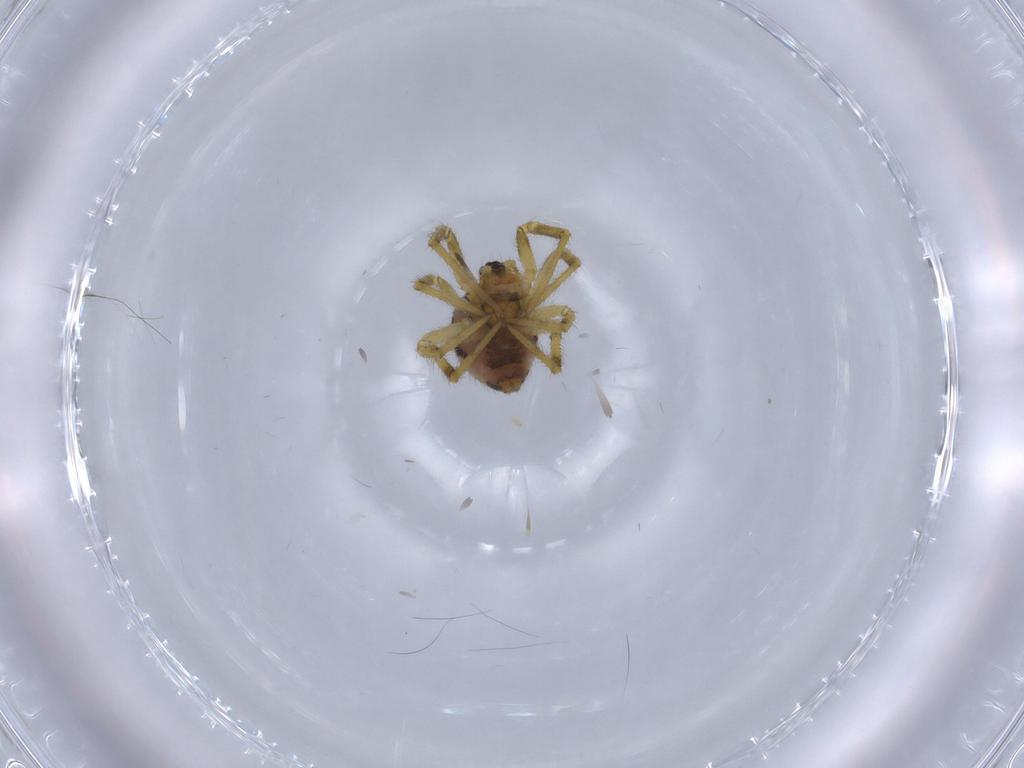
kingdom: Animalia
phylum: Arthropoda
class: Arachnida
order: Araneae
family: Theridiidae
